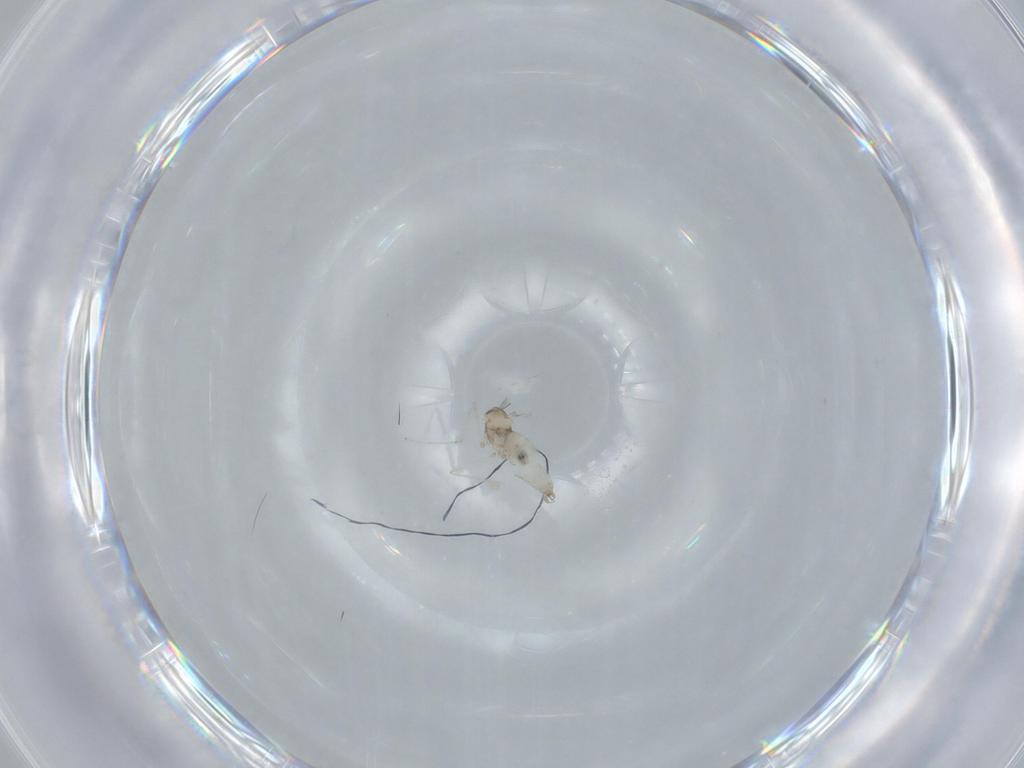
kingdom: Animalia
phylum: Arthropoda
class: Insecta
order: Diptera
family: Cecidomyiidae
